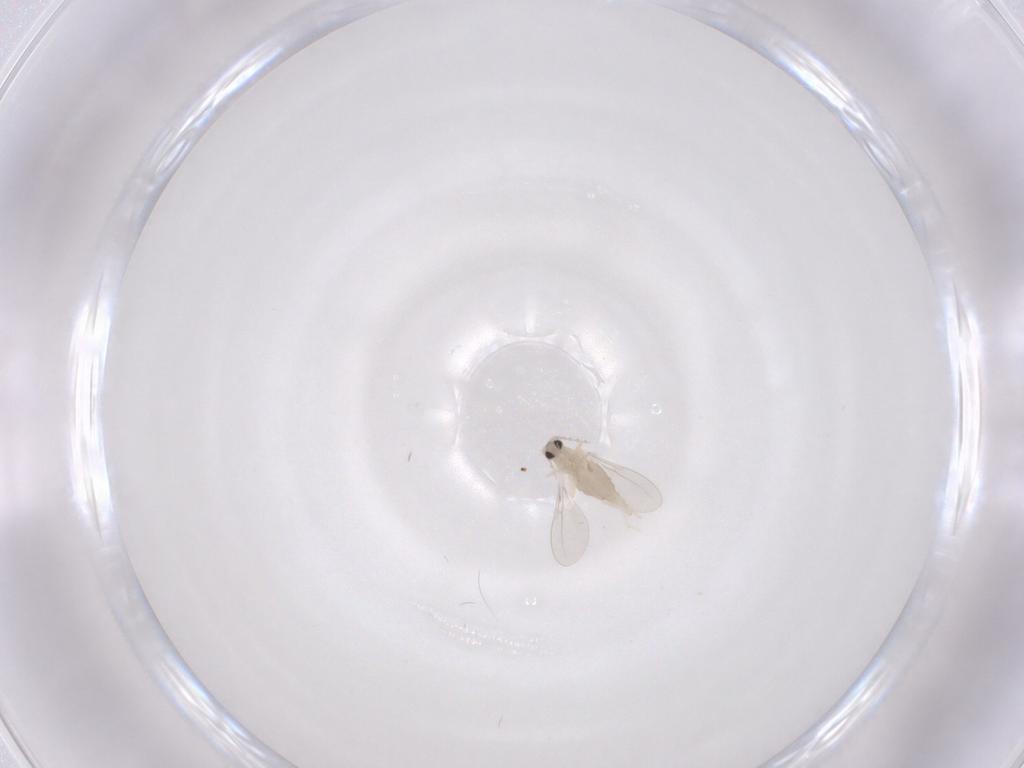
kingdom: Animalia
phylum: Arthropoda
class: Insecta
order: Diptera
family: Cecidomyiidae
